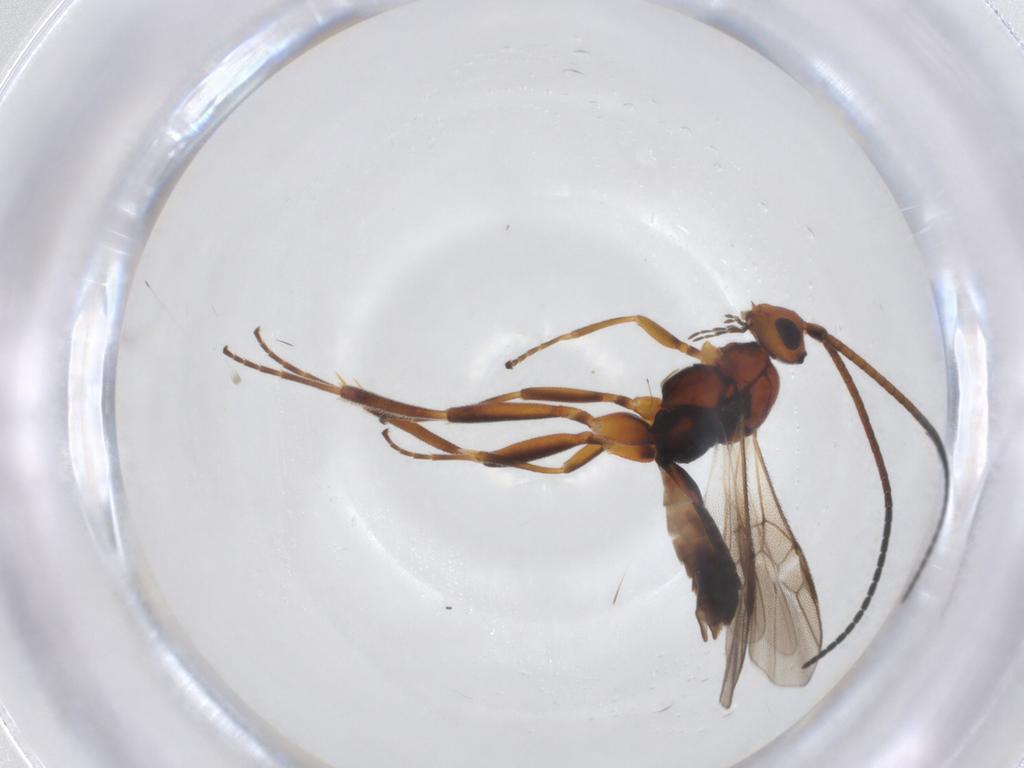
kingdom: Animalia
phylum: Arthropoda
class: Insecta
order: Hymenoptera
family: Braconidae
